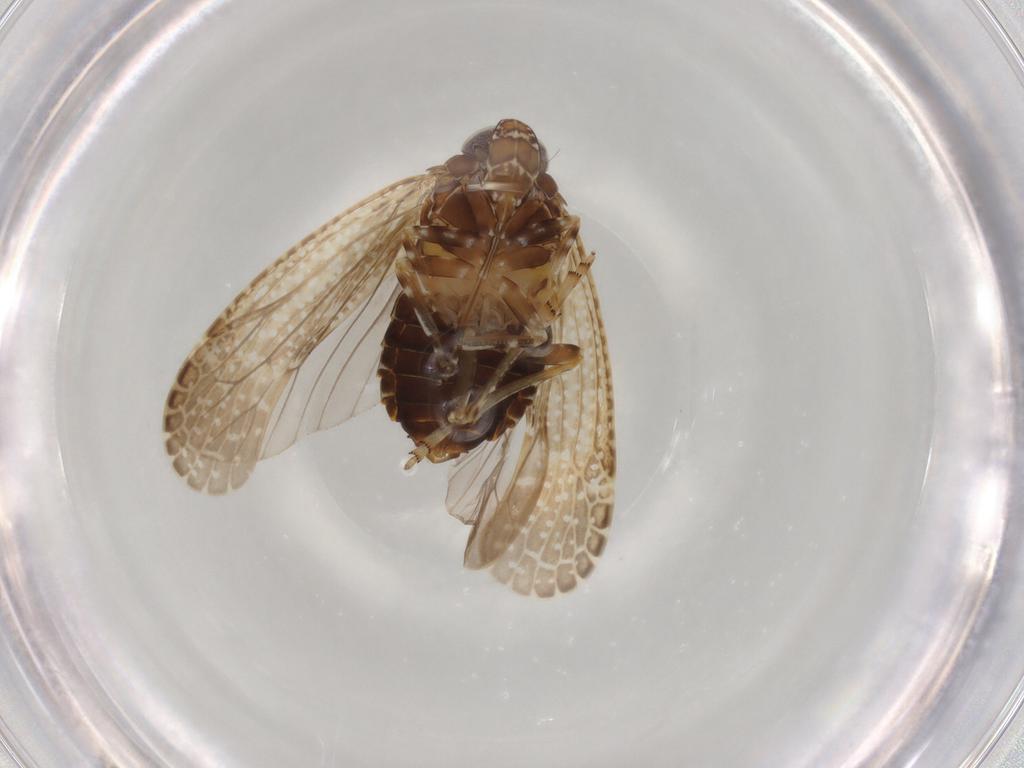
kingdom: Animalia
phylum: Arthropoda
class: Insecta
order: Hemiptera
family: Achilidae
